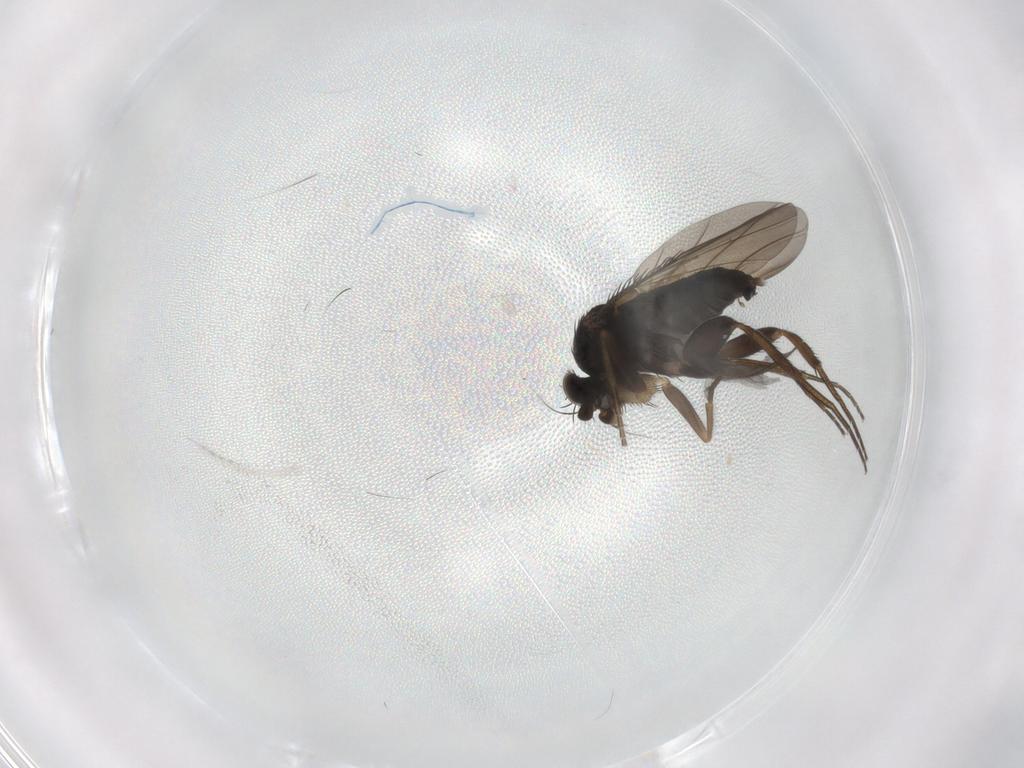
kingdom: Animalia
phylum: Arthropoda
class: Insecta
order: Diptera
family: Phoridae
